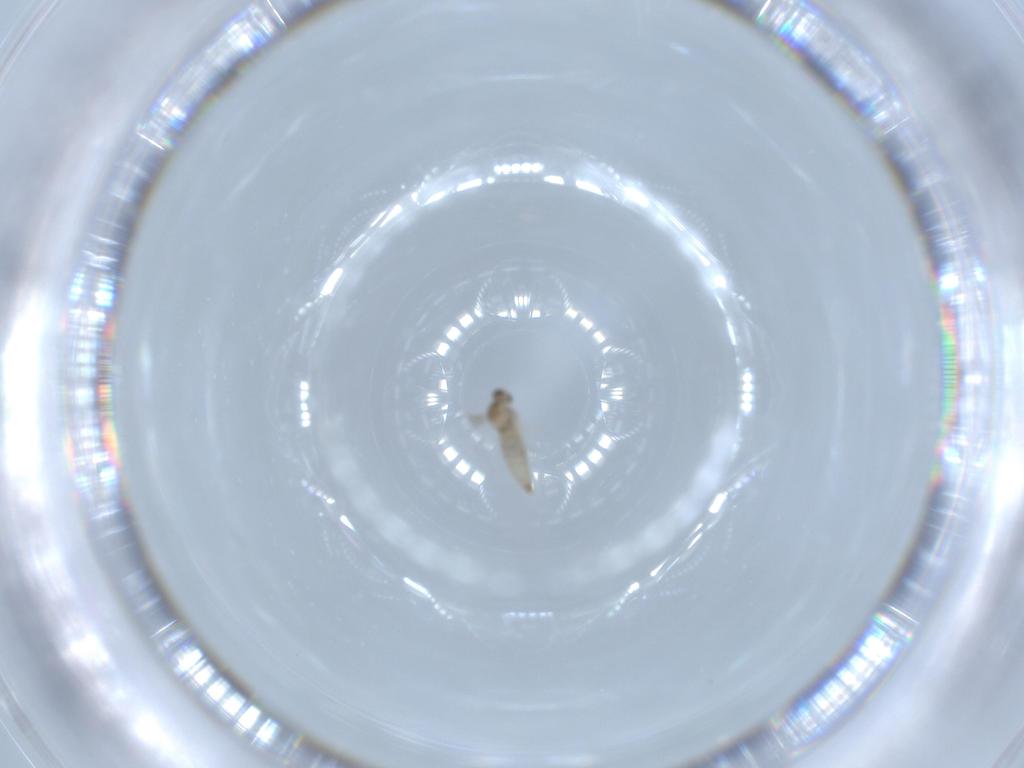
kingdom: Animalia
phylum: Arthropoda
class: Insecta
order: Diptera
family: Cecidomyiidae
